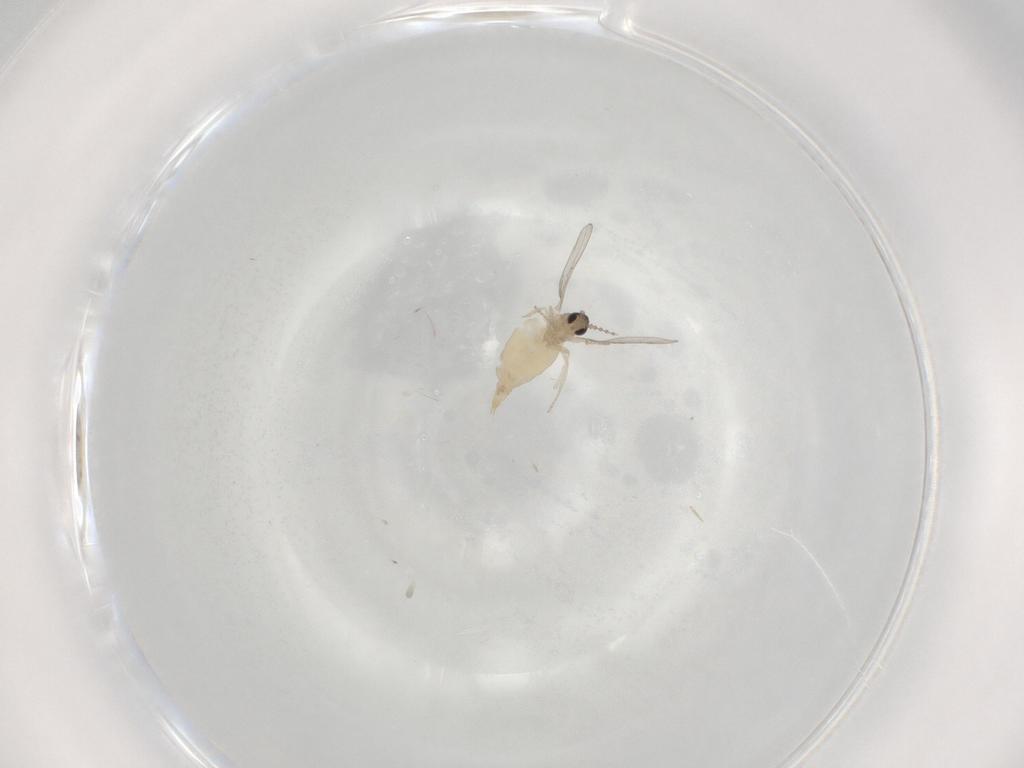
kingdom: Animalia
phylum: Arthropoda
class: Insecta
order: Diptera
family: Cecidomyiidae
